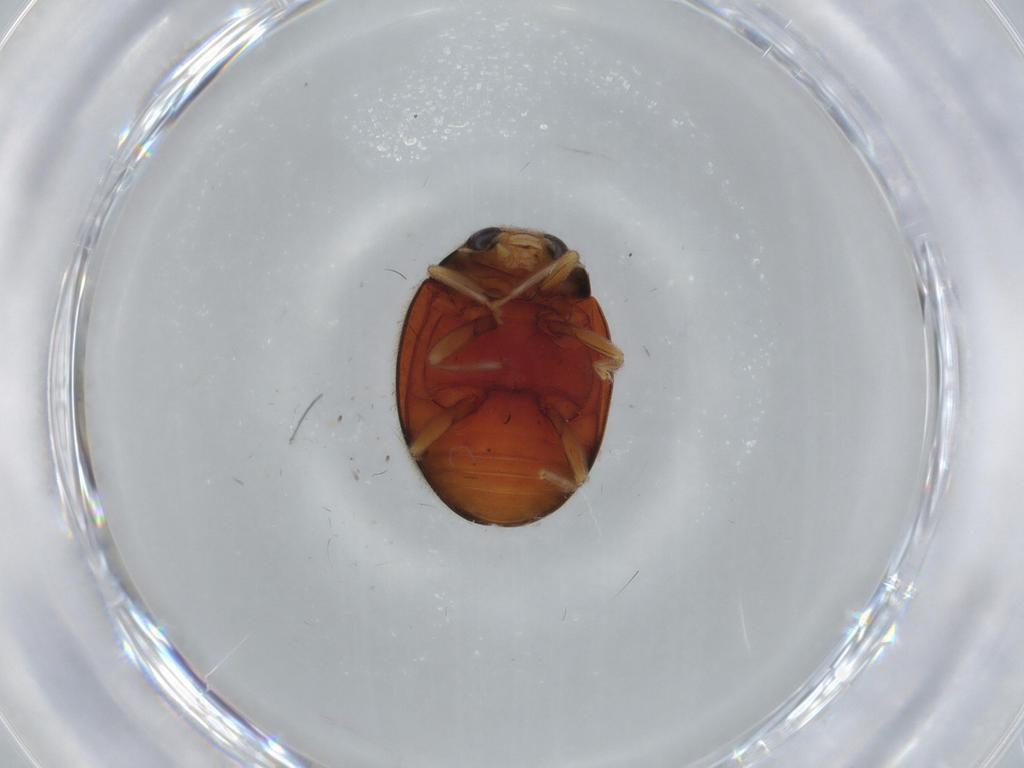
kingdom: Animalia
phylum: Arthropoda
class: Insecta
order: Coleoptera
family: Coccinellidae
